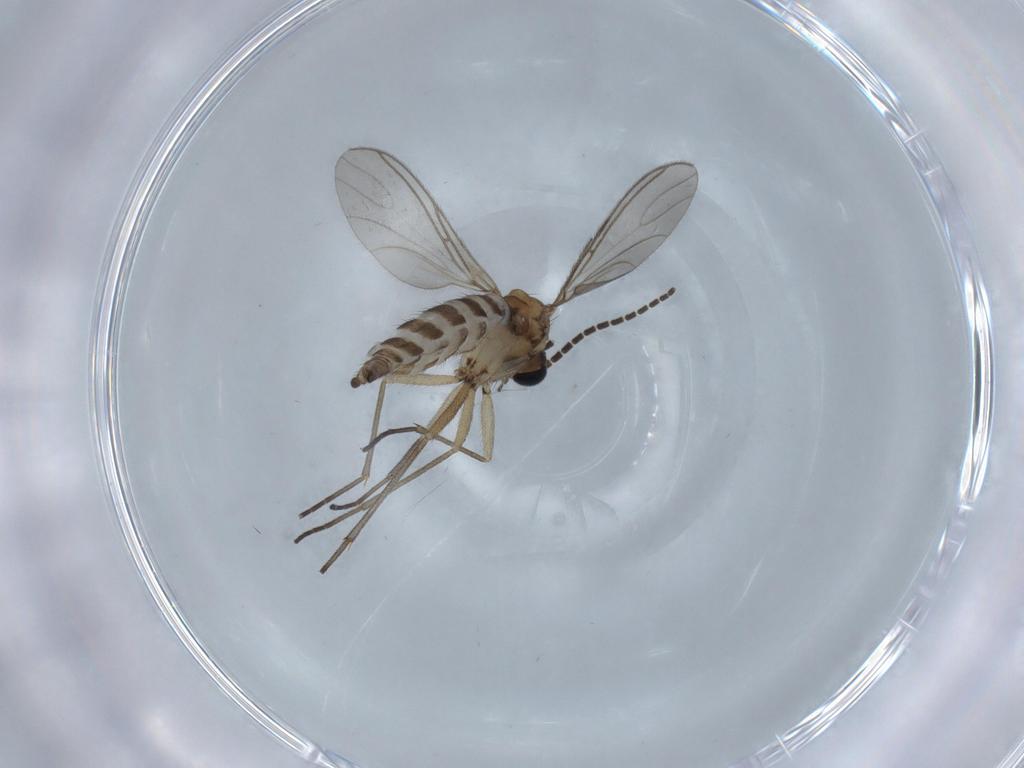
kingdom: Animalia
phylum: Arthropoda
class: Insecta
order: Diptera
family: Sciaridae
